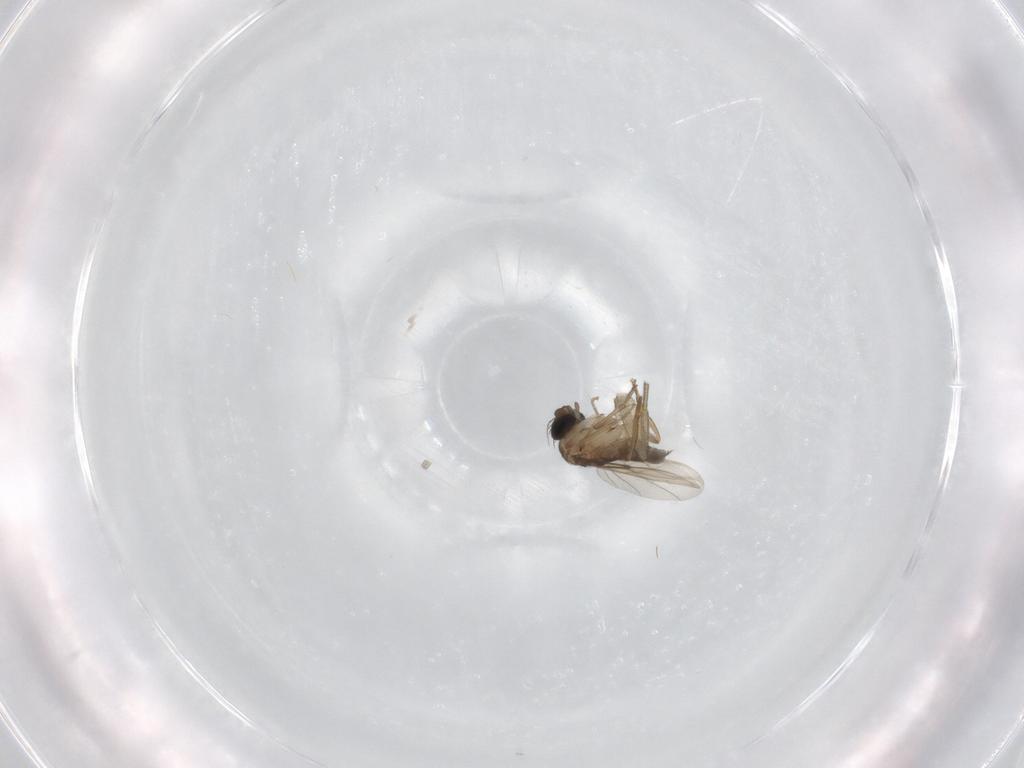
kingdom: Animalia
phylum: Arthropoda
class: Insecta
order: Diptera
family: Phoridae
